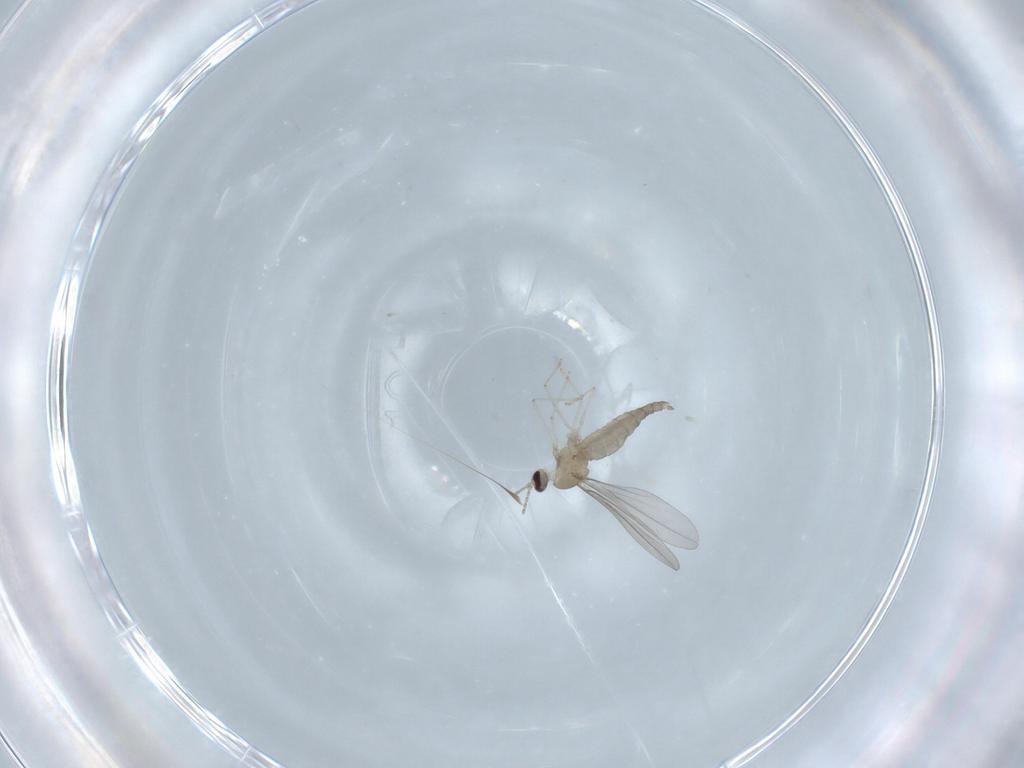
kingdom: Animalia
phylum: Arthropoda
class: Insecta
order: Diptera
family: Cecidomyiidae
